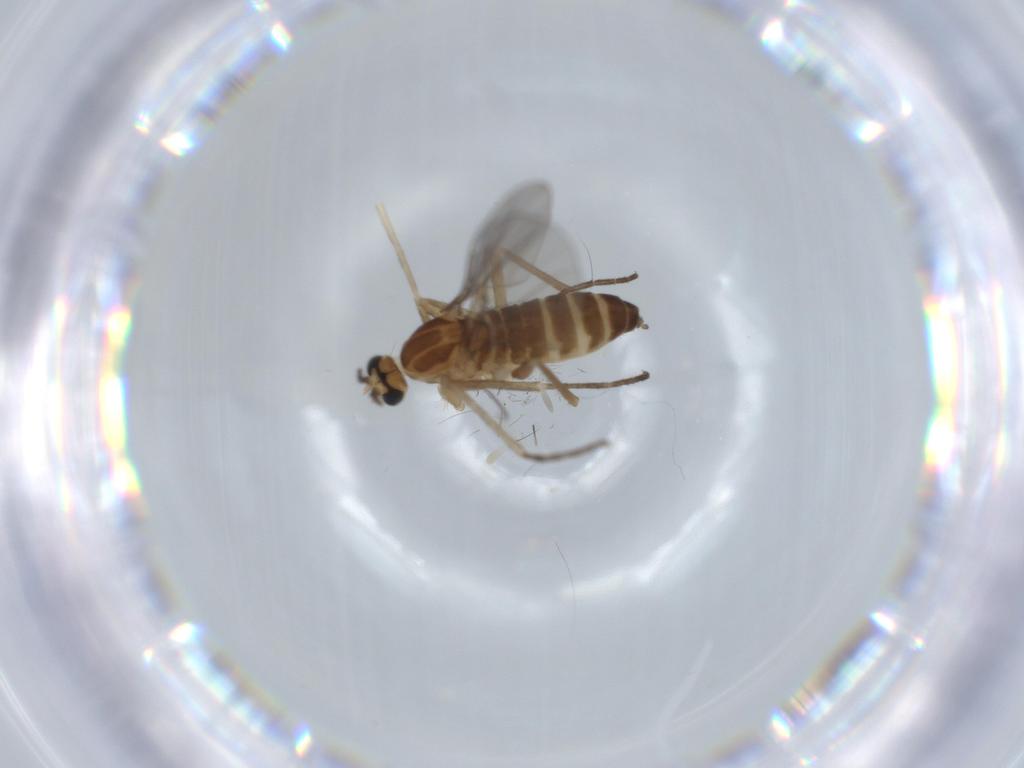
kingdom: Animalia
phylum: Arthropoda
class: Insecta
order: Diptera
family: Cecidomyiidae
